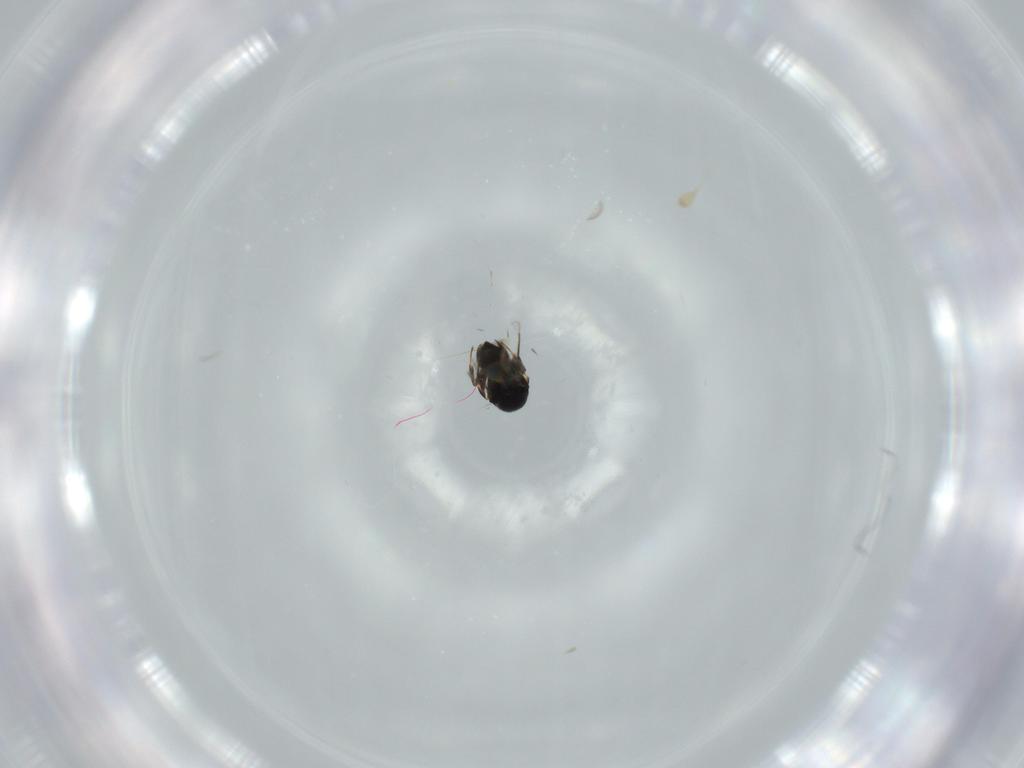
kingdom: Animalia
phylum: Arthropoda
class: Insecta
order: Hymenoptera
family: Scelionidae
